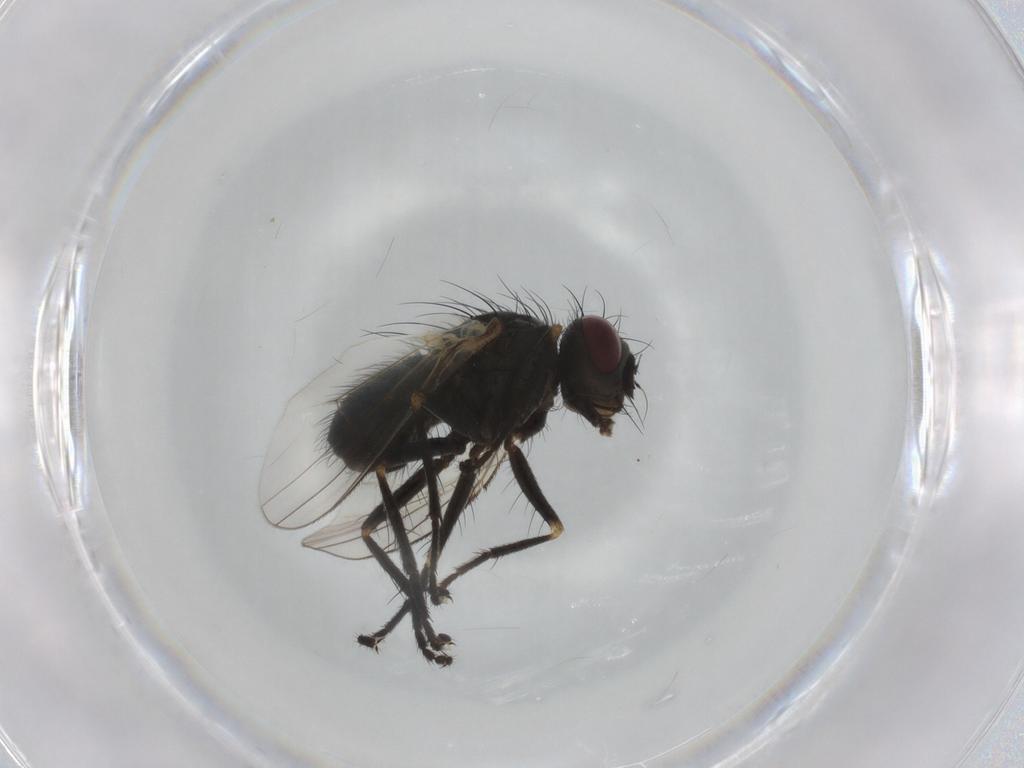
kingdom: Animalia
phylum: Arthropoda
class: Insecta
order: Diptera
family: Muscidae
